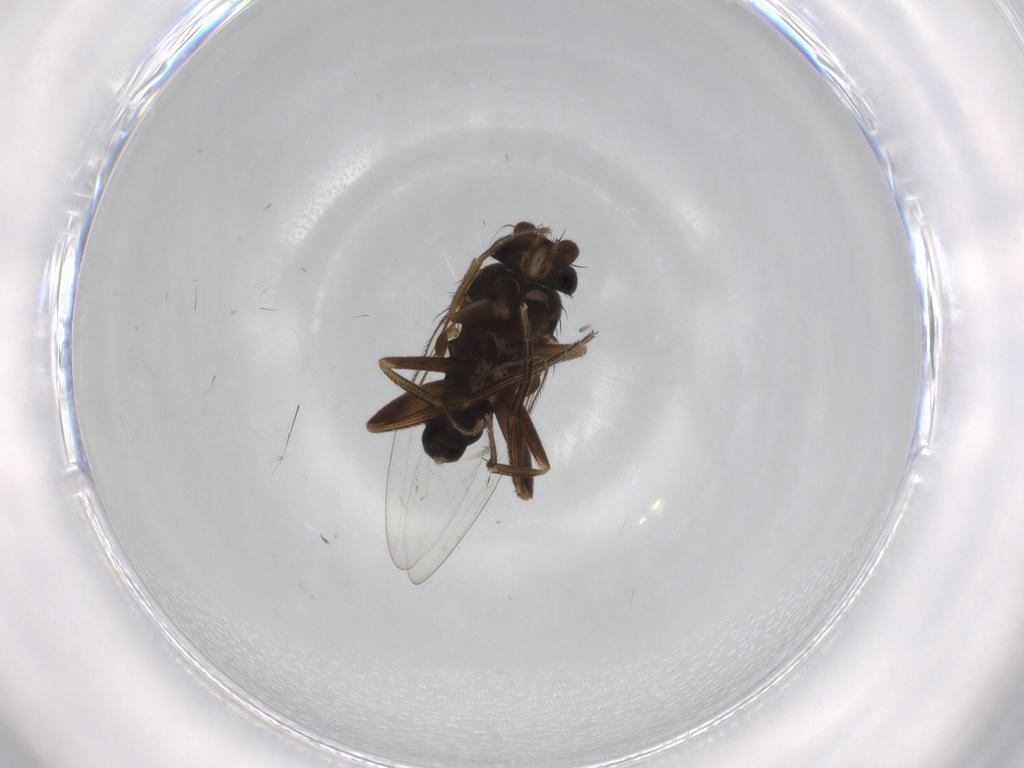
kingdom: Animalia
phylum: Arthropoda
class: Insecta
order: Diptera
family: Phoridae
